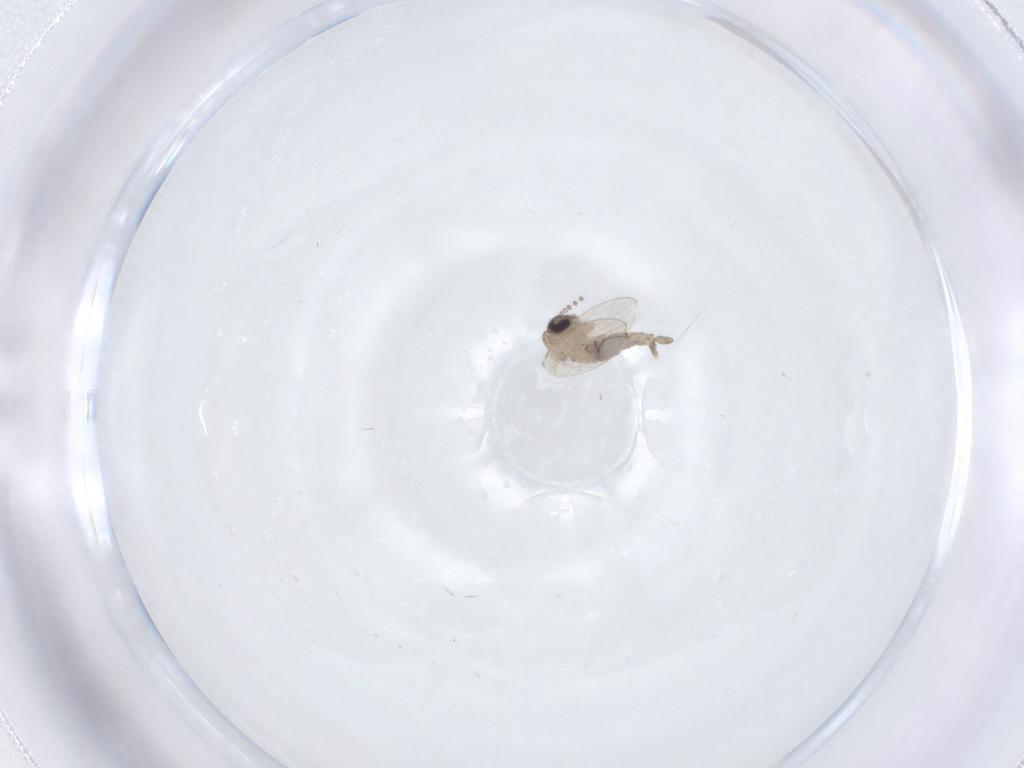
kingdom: Animalia
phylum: Arthropoda
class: Insecta
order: Diptera
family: Psychodidae
